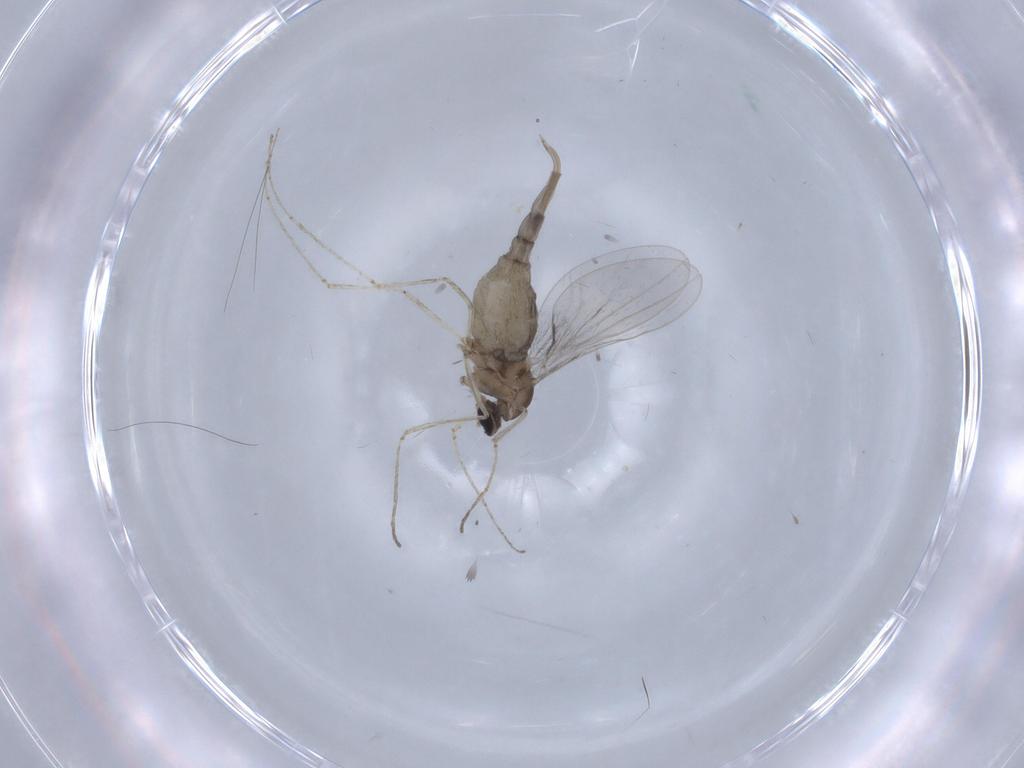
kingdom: Animalia
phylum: Arthropoda
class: Insecta
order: Diptera
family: Cecidomyiidae
